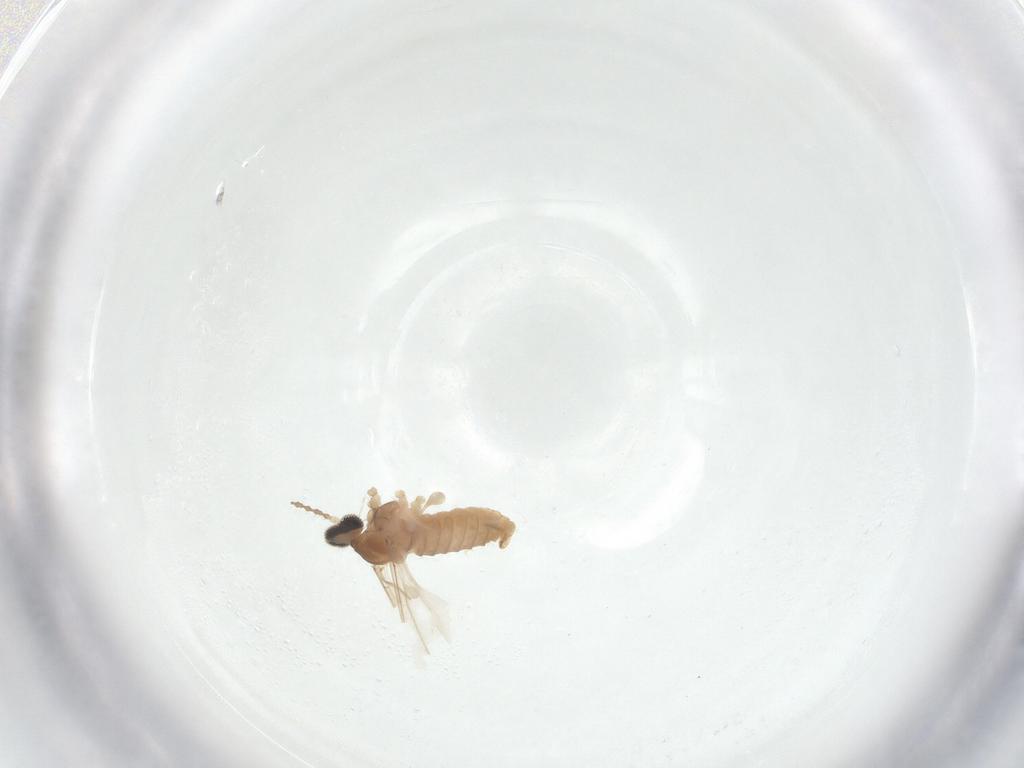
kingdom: Animalia
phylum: Arthropoda
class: Insecta
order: Diptera
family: Cecidomyiidae
